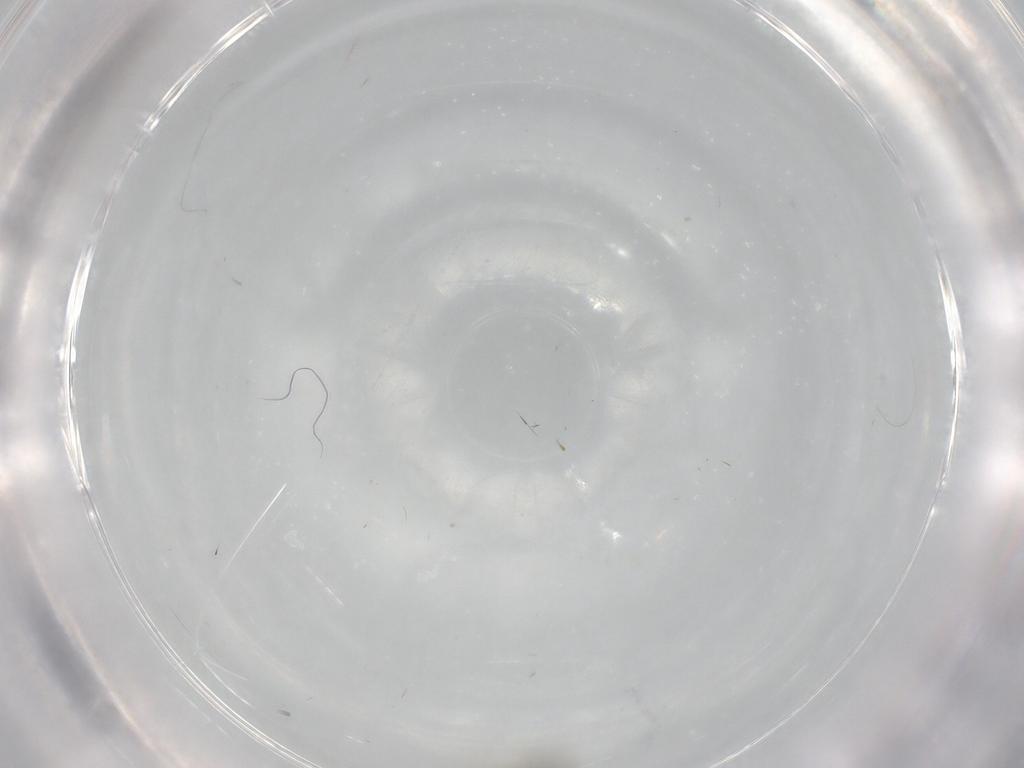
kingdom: Animalia
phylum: Arthropoda
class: Insecta
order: Diptera
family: Cecidomyiidae
